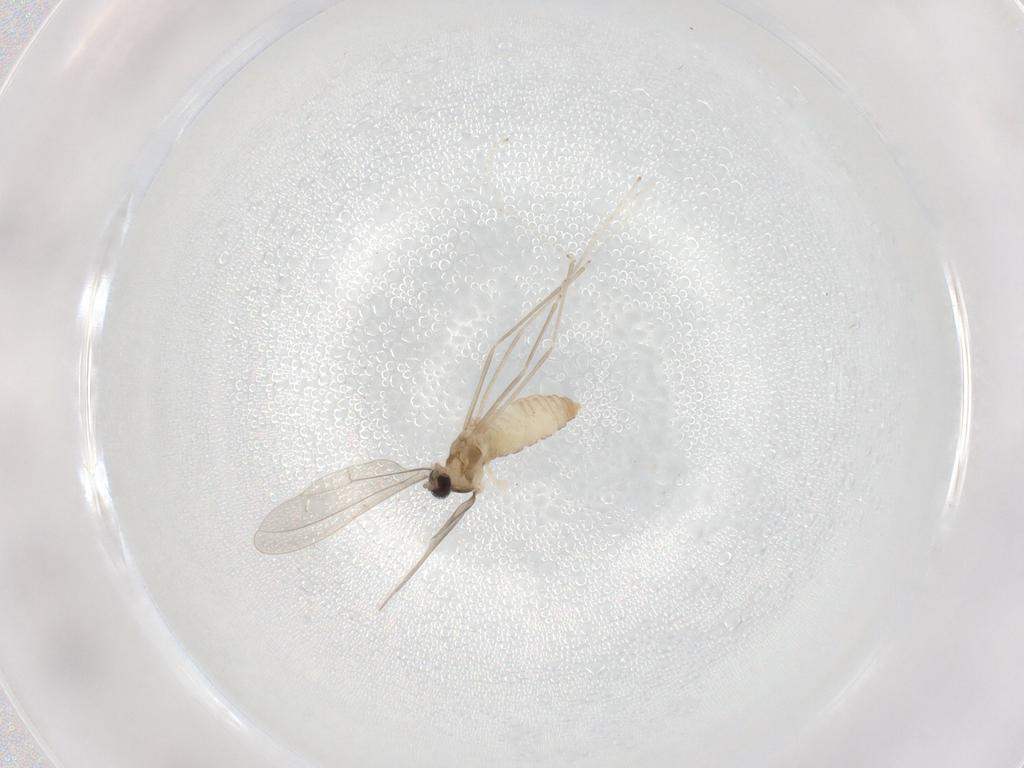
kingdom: Animalia
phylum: Arthropoda
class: Insecta
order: Diptera
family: Cecidomyiidae
